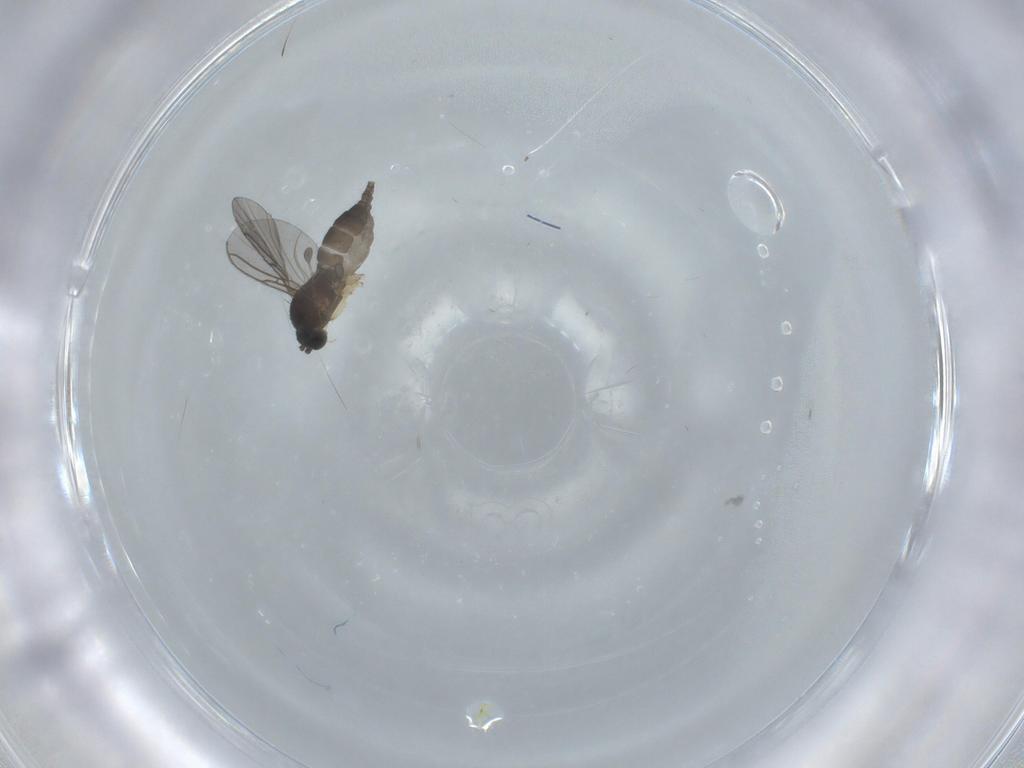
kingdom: Animalia
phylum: Arthropoda
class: Insecta
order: Diptera
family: Sciaridae
